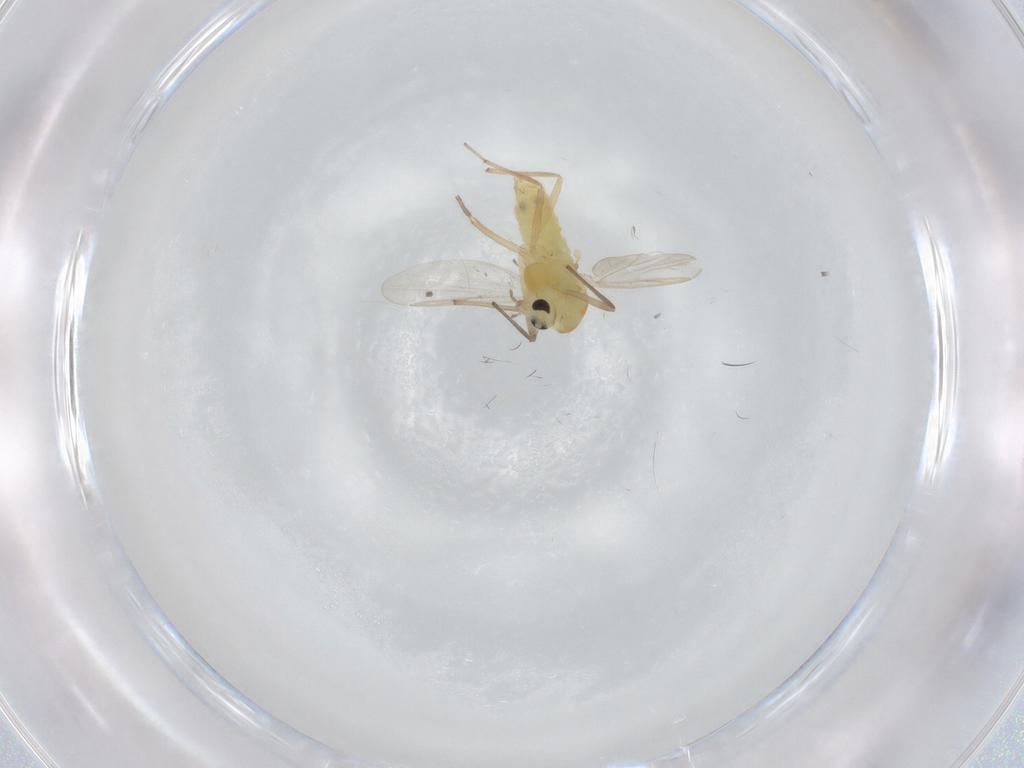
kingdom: Animalia
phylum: Arthropoda
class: Insecta
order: Diptera
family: Chironomidae
